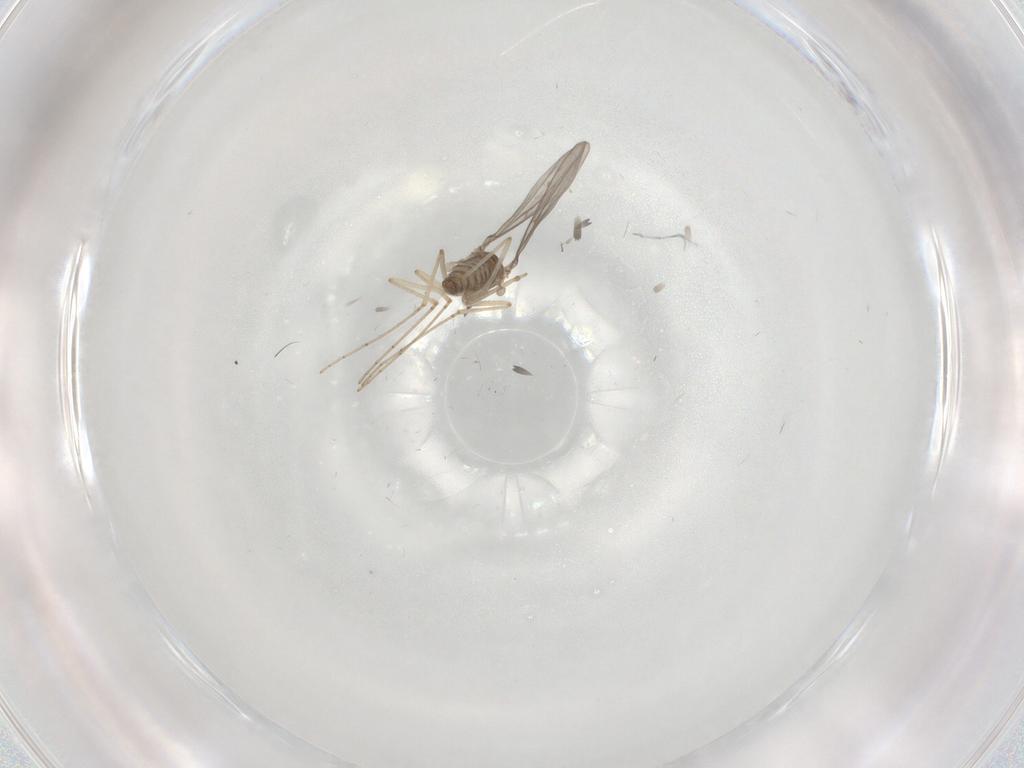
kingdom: Animalia
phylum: Arthropoda
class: Insecta
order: Diptera
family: Cecidomyiidae
